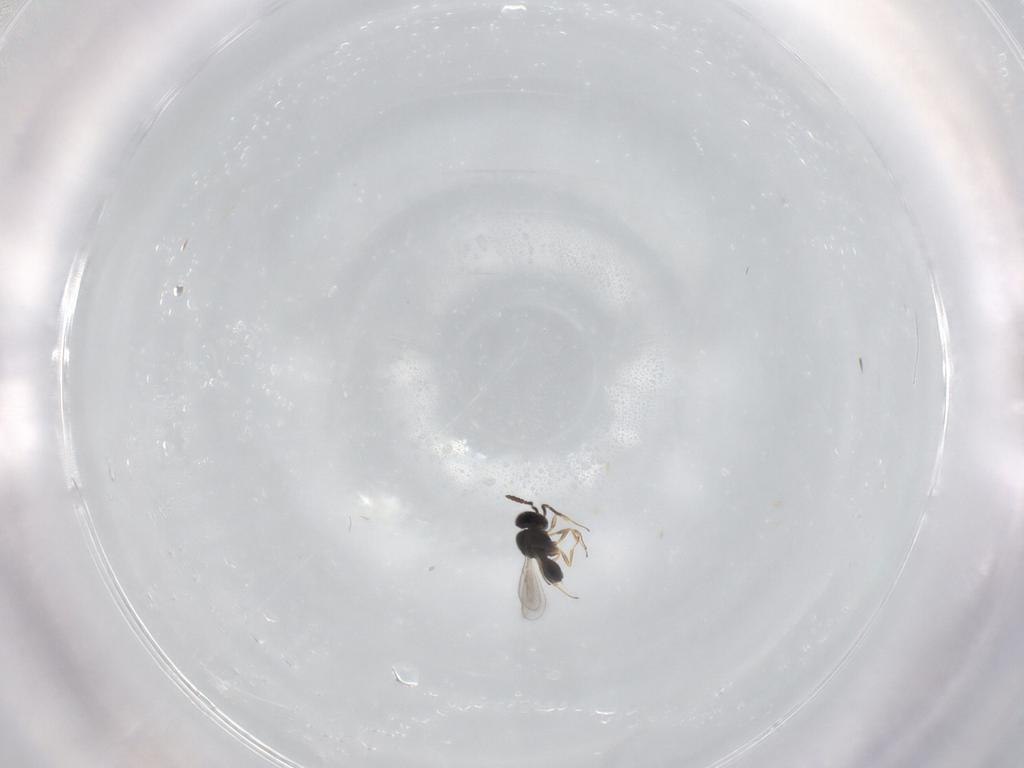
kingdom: Animalia
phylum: Arthropoda
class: Insecta
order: Hymenoptera
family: Scelionidae
